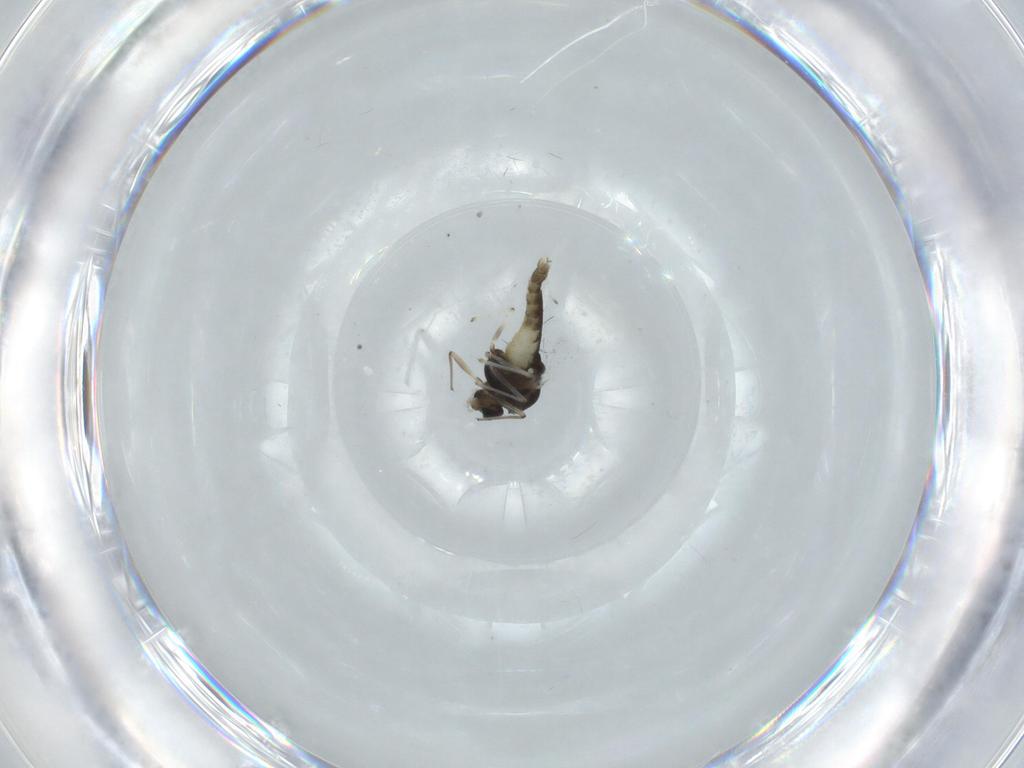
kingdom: Animalia
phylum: Arthropoda
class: Insecta
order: Diptera
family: Chironomidae
